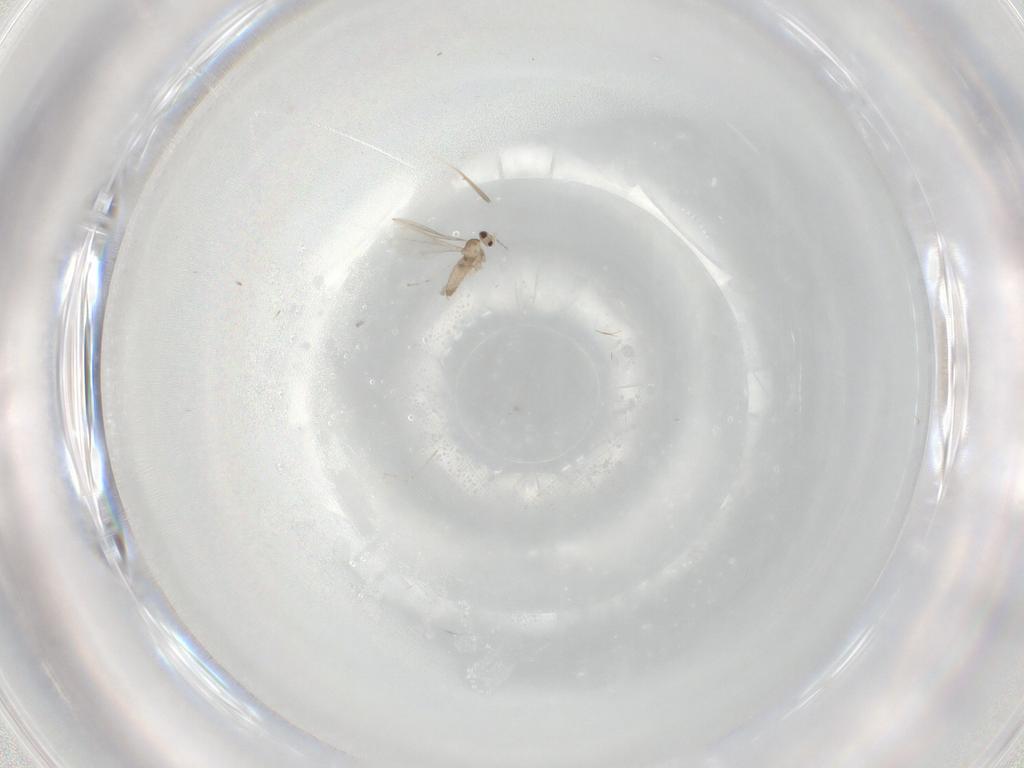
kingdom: Animalia
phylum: Arthropoda
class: Insecta
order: Diptera
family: Cecidomyiidae
